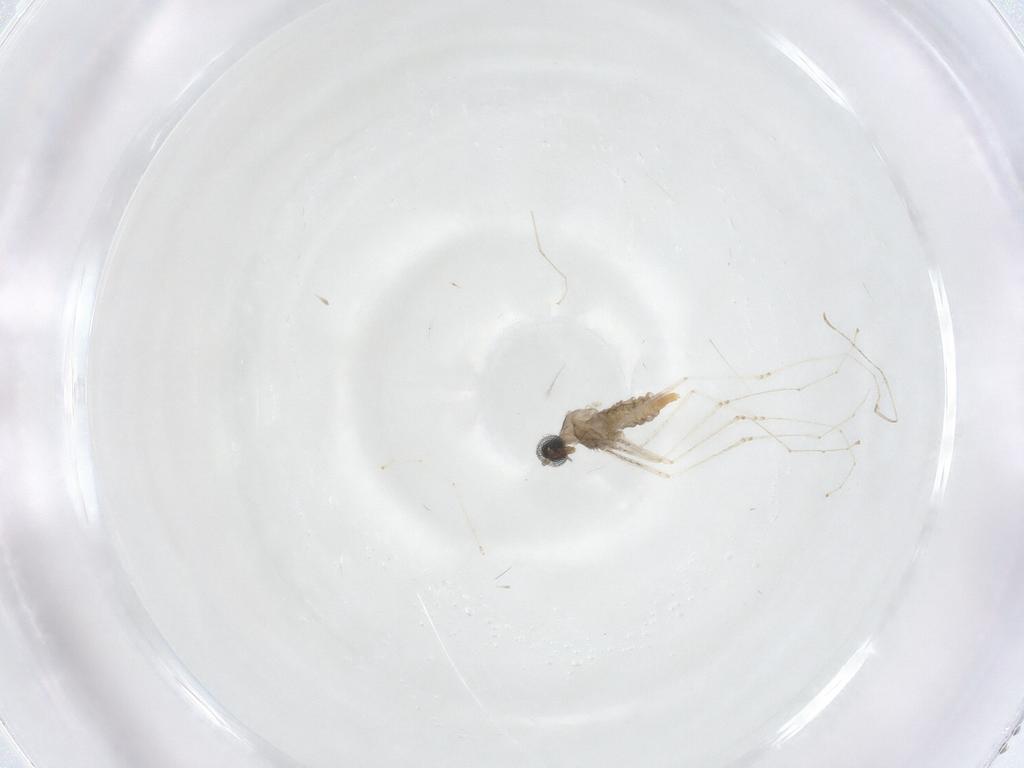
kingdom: Animalia
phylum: Arthropoda
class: Insecta
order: Diptera
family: Cecidomyiidae
